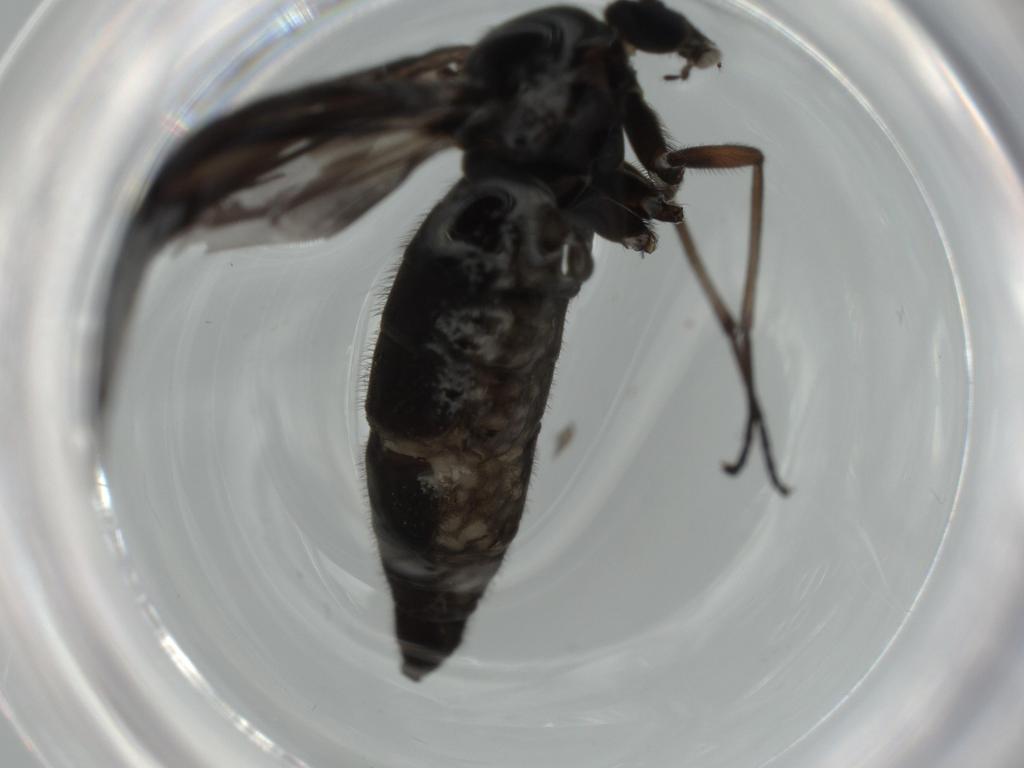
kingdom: Animalia
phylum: Arthropoda
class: Insecta
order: Diptera
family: Sciaridae
